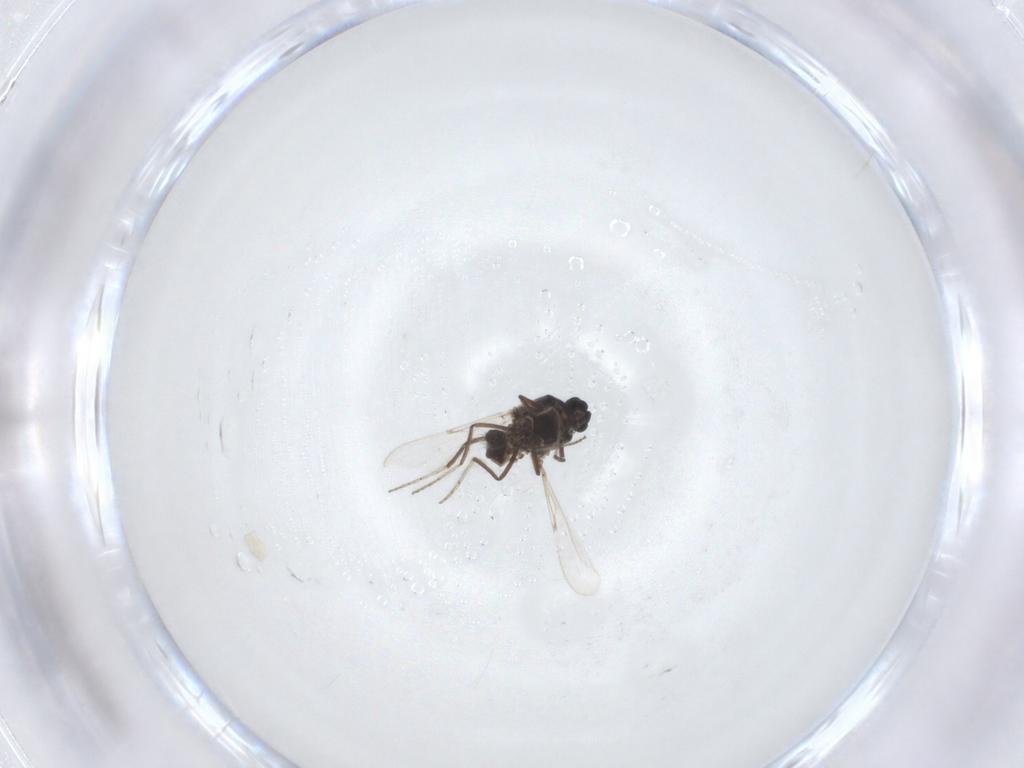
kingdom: Animalia
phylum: Arthropoda
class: Insecta
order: Diptera
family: Ceratopogonidae
